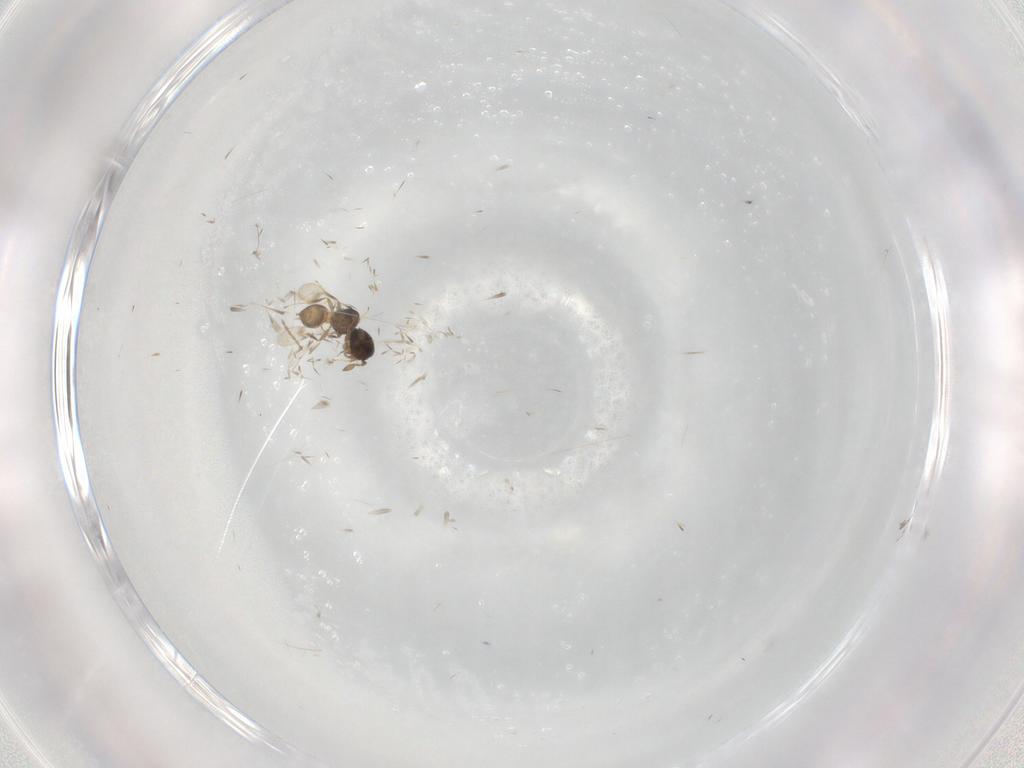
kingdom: Animalia
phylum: Arthropoda
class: Insecta
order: Hymenoptera
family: Scelionidae
